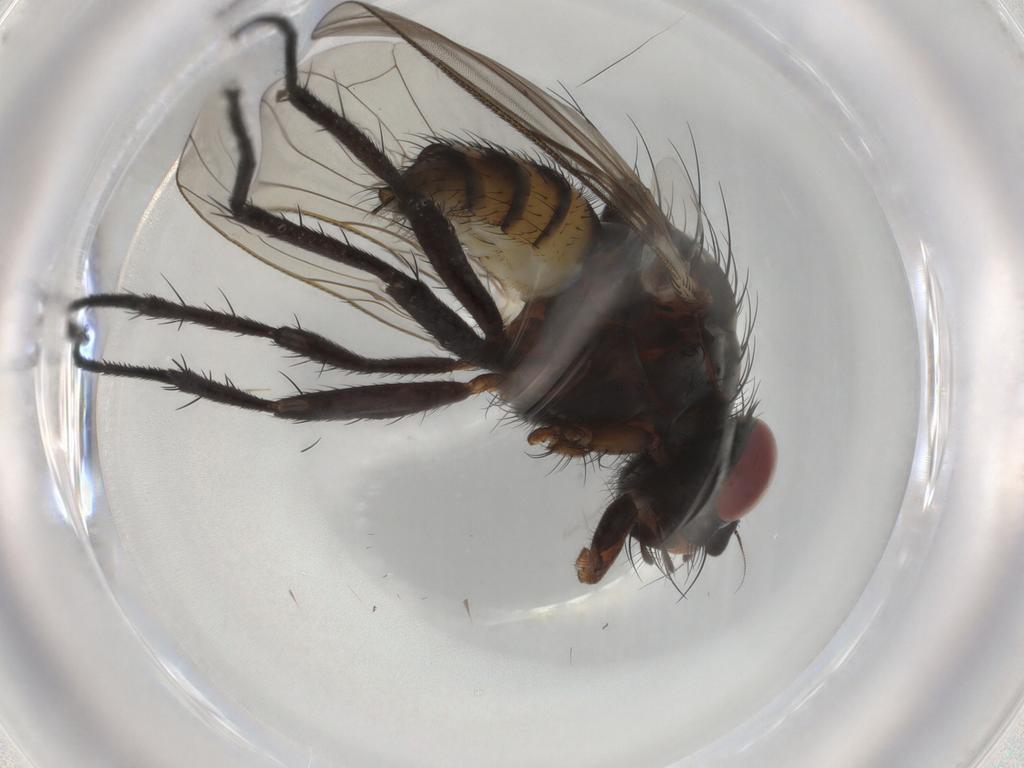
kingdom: Animalia
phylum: Arthropoda
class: Insecta
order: Diptera
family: Anthomyiidae
